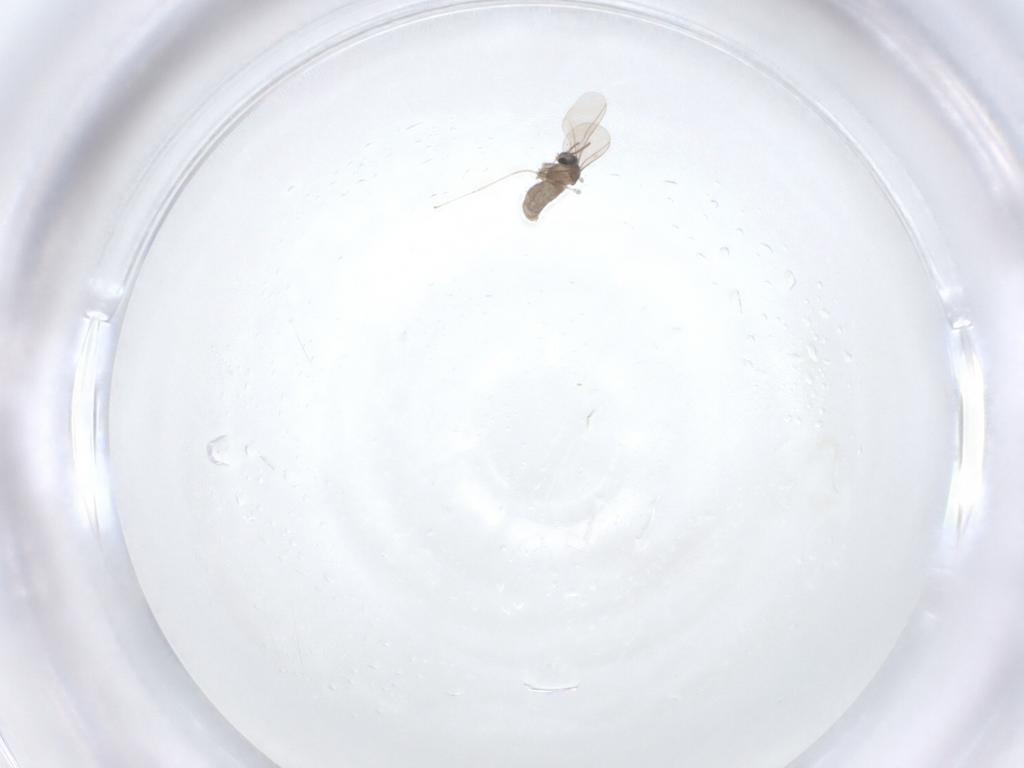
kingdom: Animalia
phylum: Arthropoda
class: Insecta
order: Diptera
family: Cecidomyiidae
